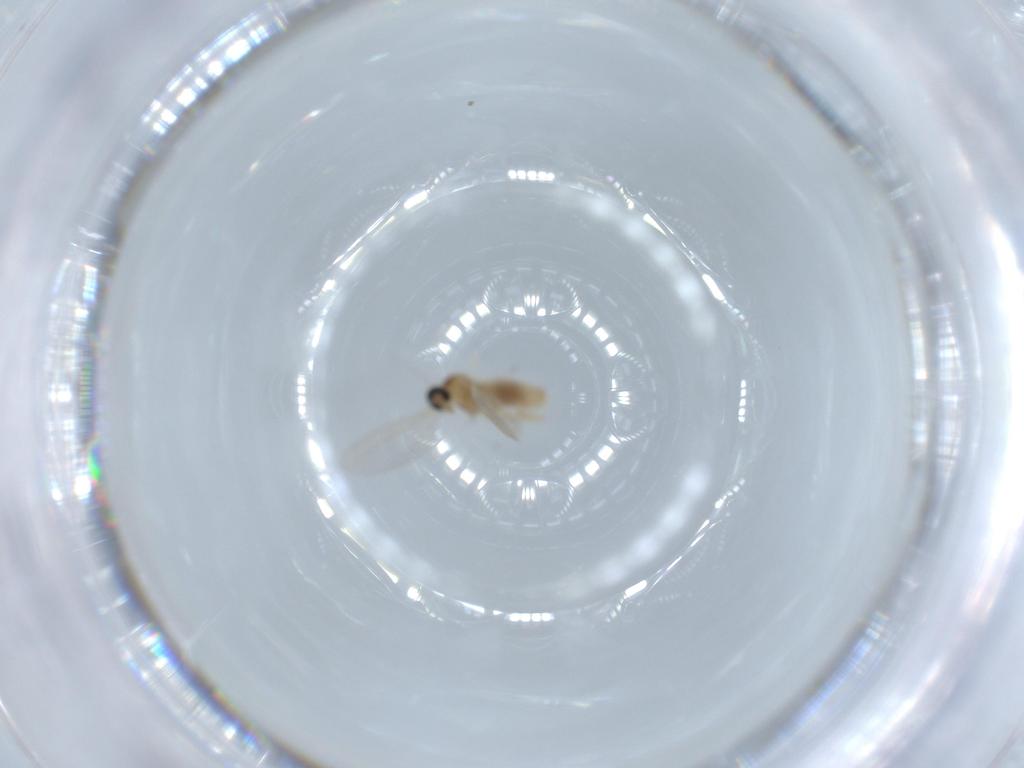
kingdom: Animalia
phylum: Arthropoda
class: Insecta
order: Diptera
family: Cecidomyiidae
